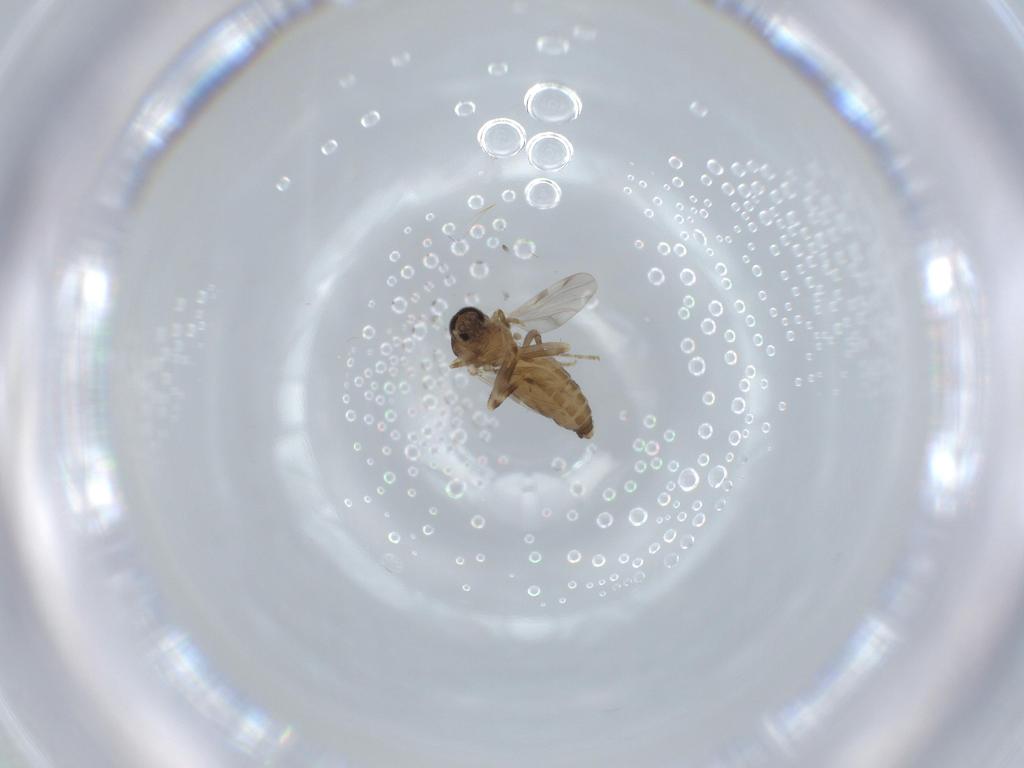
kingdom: Animalia
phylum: Arthropoda
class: Insecta
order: Diptera
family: Ceratopogonidae
